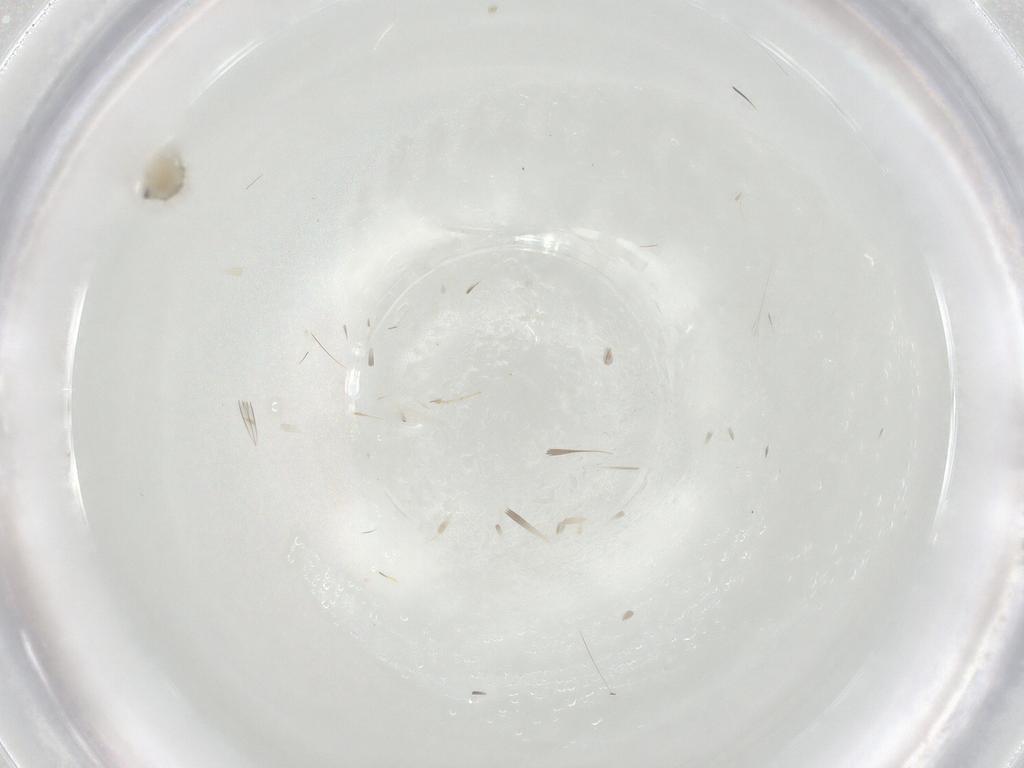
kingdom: Animalia
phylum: Arthropoda
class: Insecta
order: Diptera
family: Cecidomyiidae
